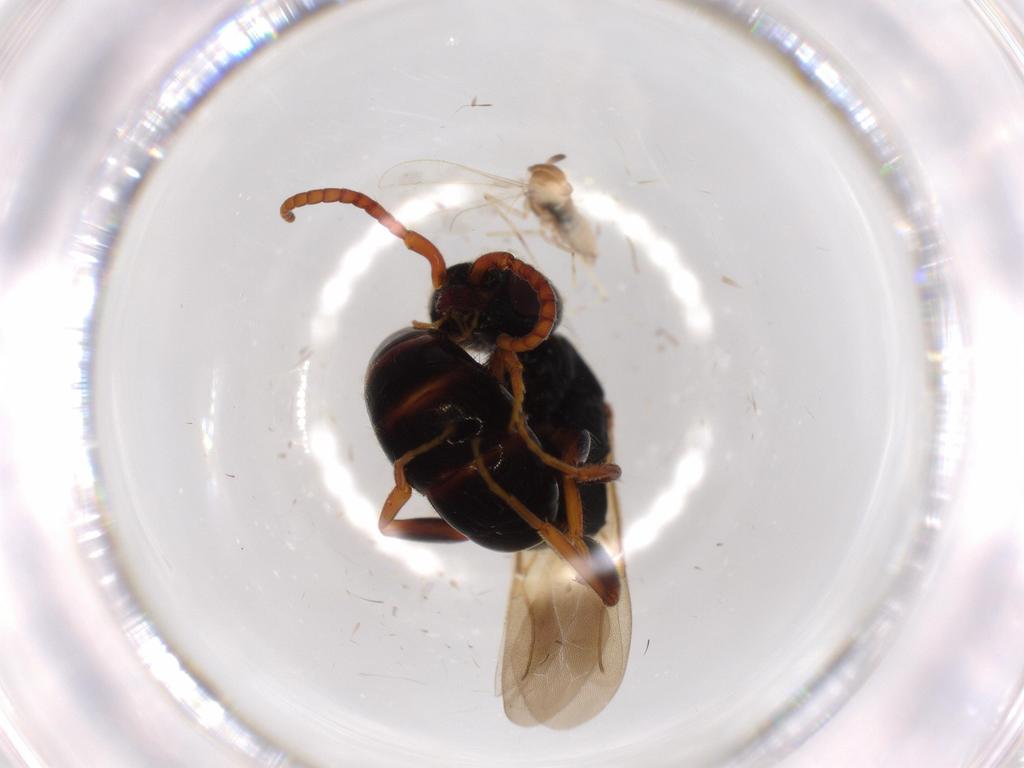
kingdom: Animalia
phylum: Arthropoda
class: Insecta
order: Diptera
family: Cecidomyiidae
